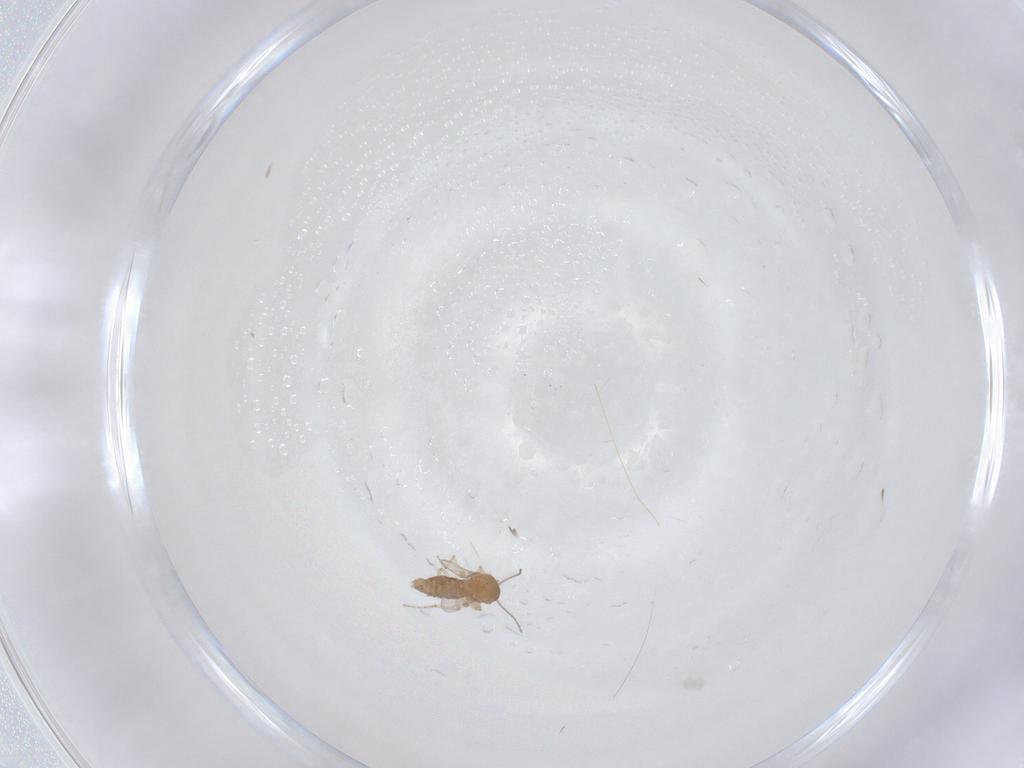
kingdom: Animalia
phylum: Arthropoda
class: Insecta
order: Diptera
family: Ceratopogonidae
